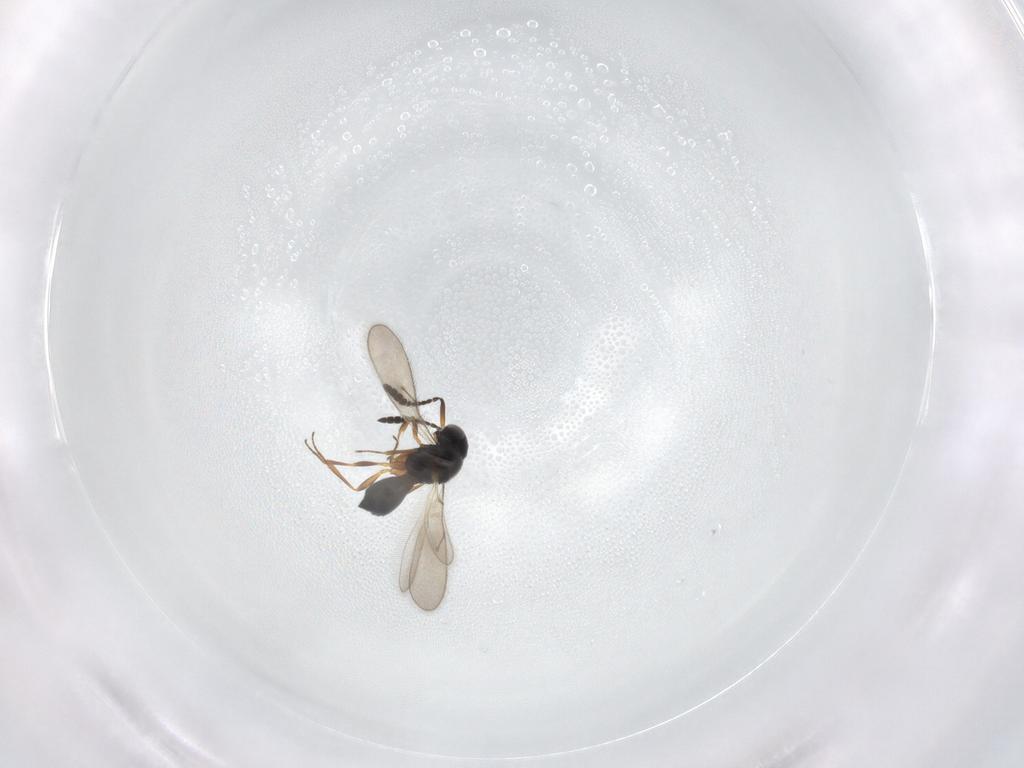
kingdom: Animalia
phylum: Arthropoda
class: Insecta
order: Hymenoptera
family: Scelionidae
